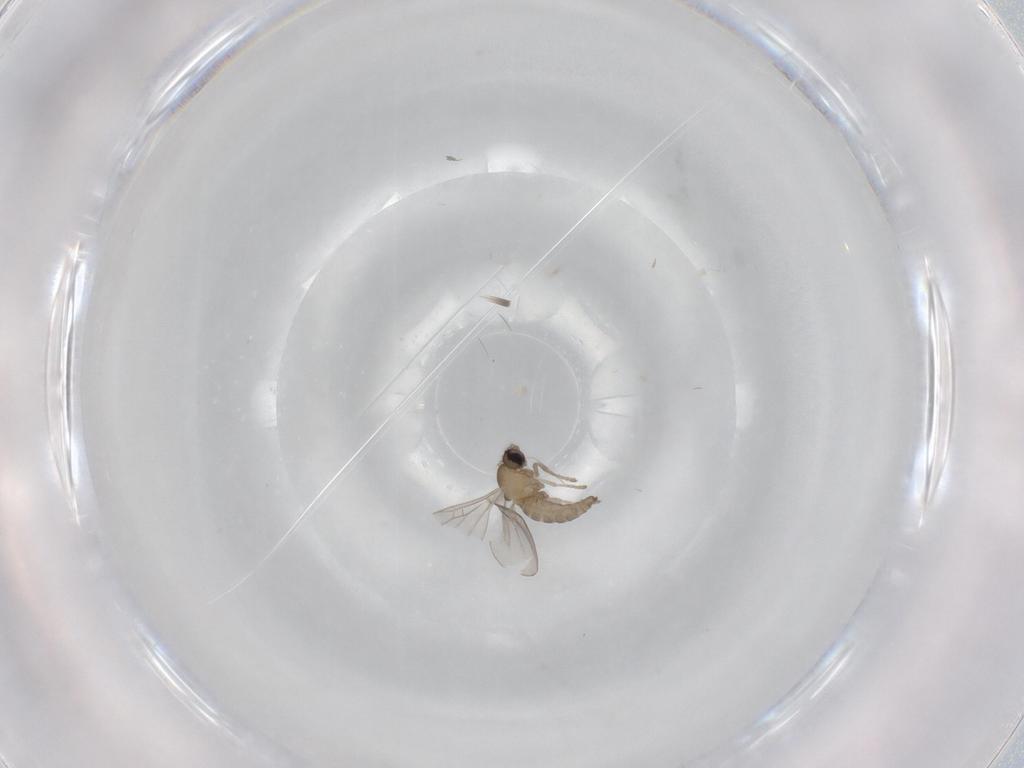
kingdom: Animalia
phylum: Arthropoda
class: Insecta
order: Diptera
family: Cecidomyiidae
